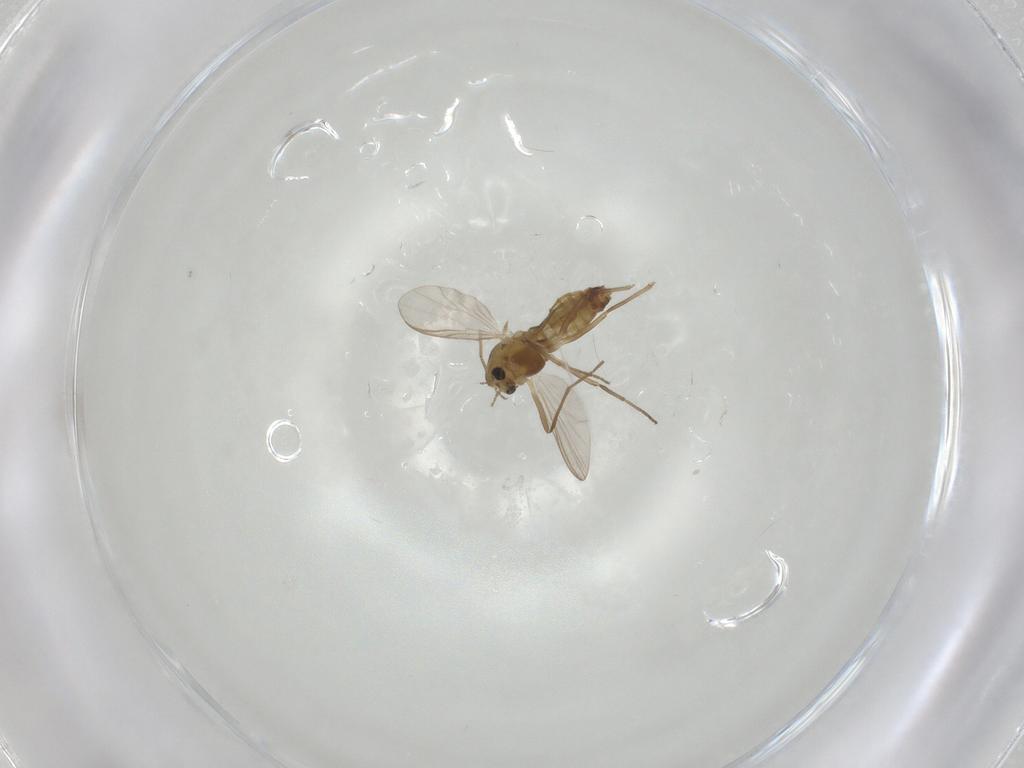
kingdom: Animalia
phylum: Arthropoda
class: Insecta
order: Diptera
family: Chironomidae
